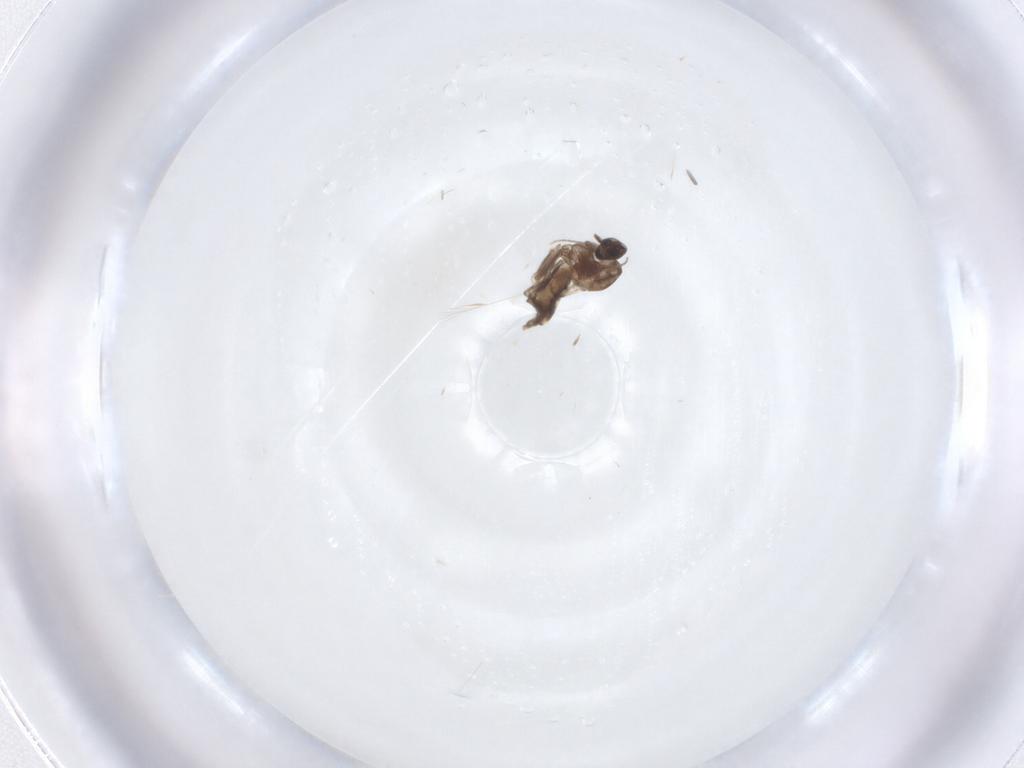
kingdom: Animalia
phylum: Arthropoda
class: Insecta
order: Diptera
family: Ceratopogonidae
